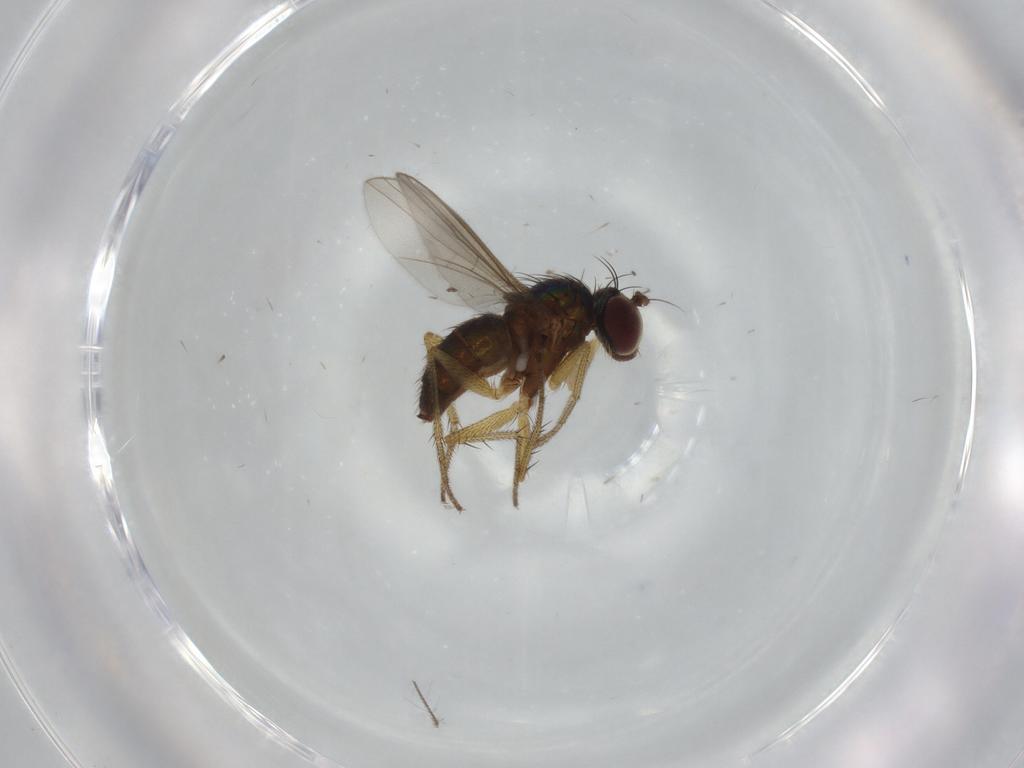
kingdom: Animalia
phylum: Arthropoda
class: Insecta
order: Diptera
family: Dolichopodidae
